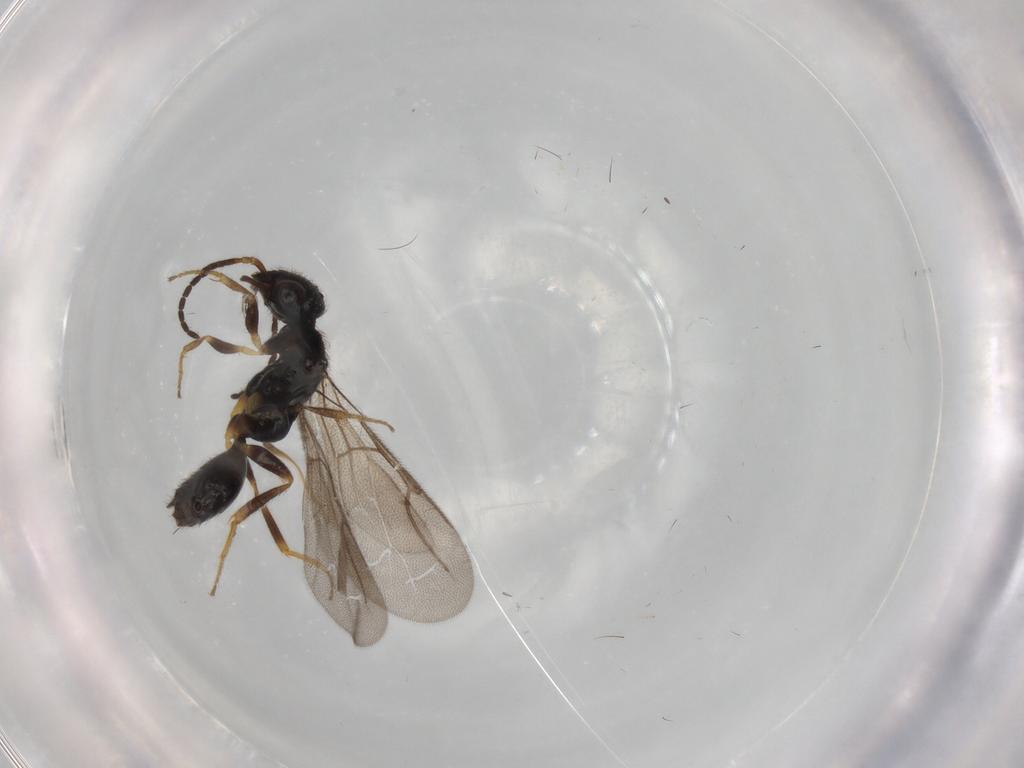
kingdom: Animalia
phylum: Arthropoda
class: Insecta
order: Hymenoptera
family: Bethylidae
